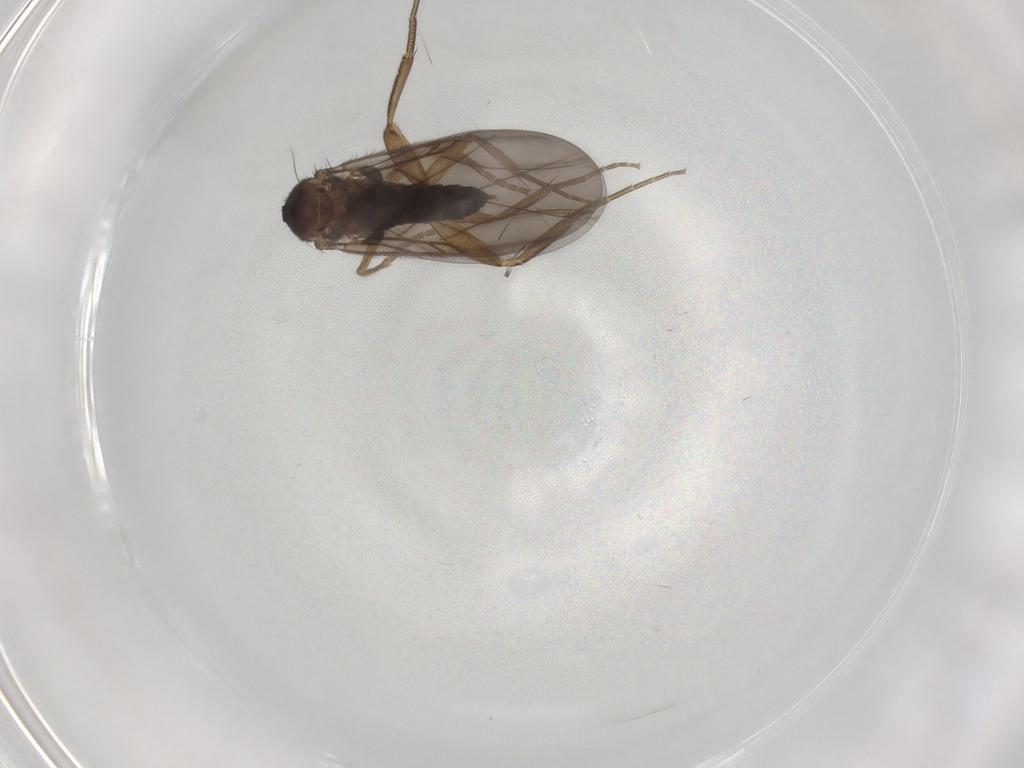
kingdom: Animalia
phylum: Arthropoda
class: Insecta
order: Diptera
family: Phoridae
